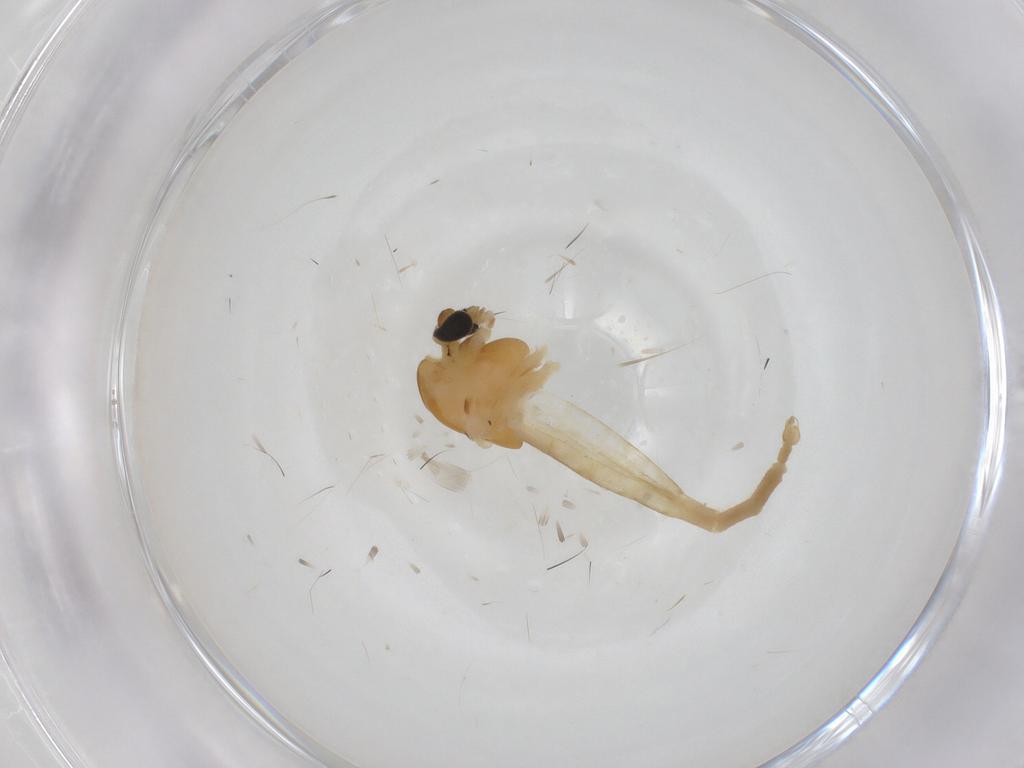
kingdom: Animalia
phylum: Arthropoda
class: Insecta
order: Diptera
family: Chironomidae
